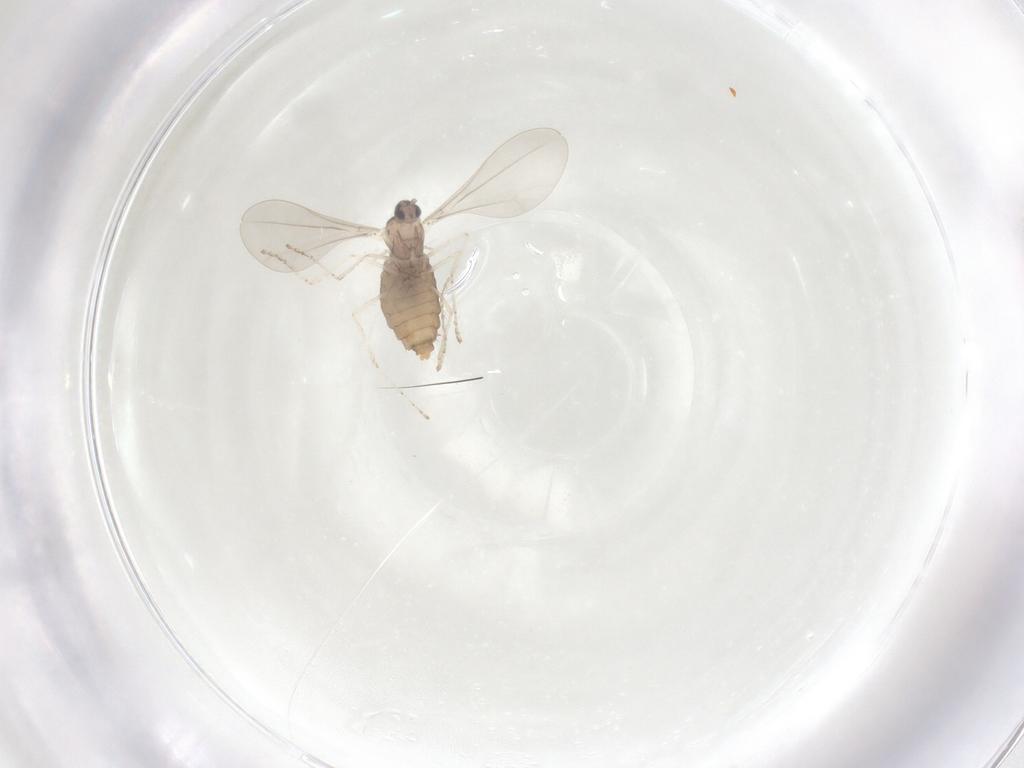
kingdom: Animalia
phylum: Arthropoda
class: Insecta
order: Diptera
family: Cecidomyiidae
